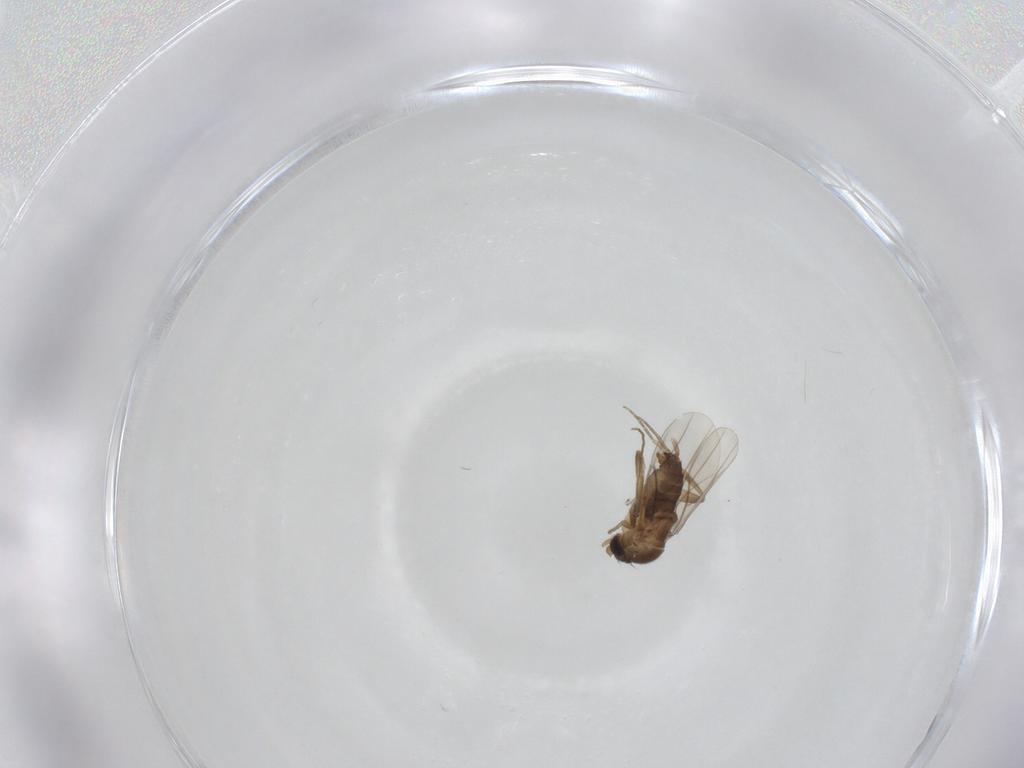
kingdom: Animalia
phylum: Arthropoda
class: Insecta
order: Diptera
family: Phoridae
